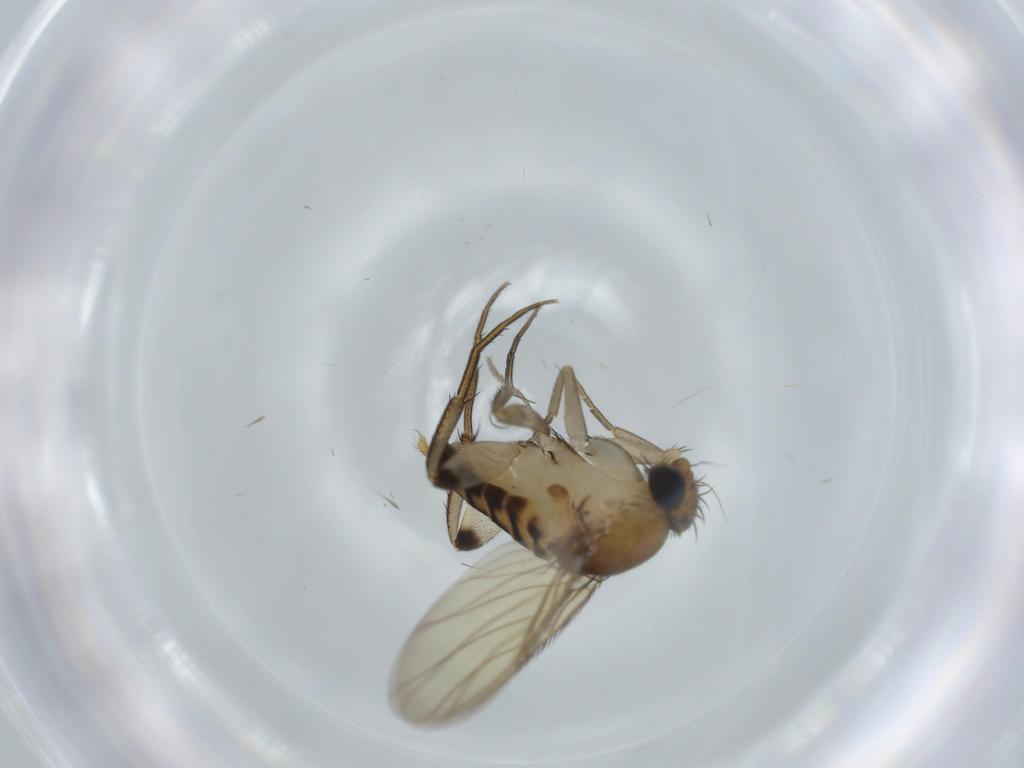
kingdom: Animalia
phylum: Arthropoda
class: Insecta
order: Diptera
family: Phoridae
